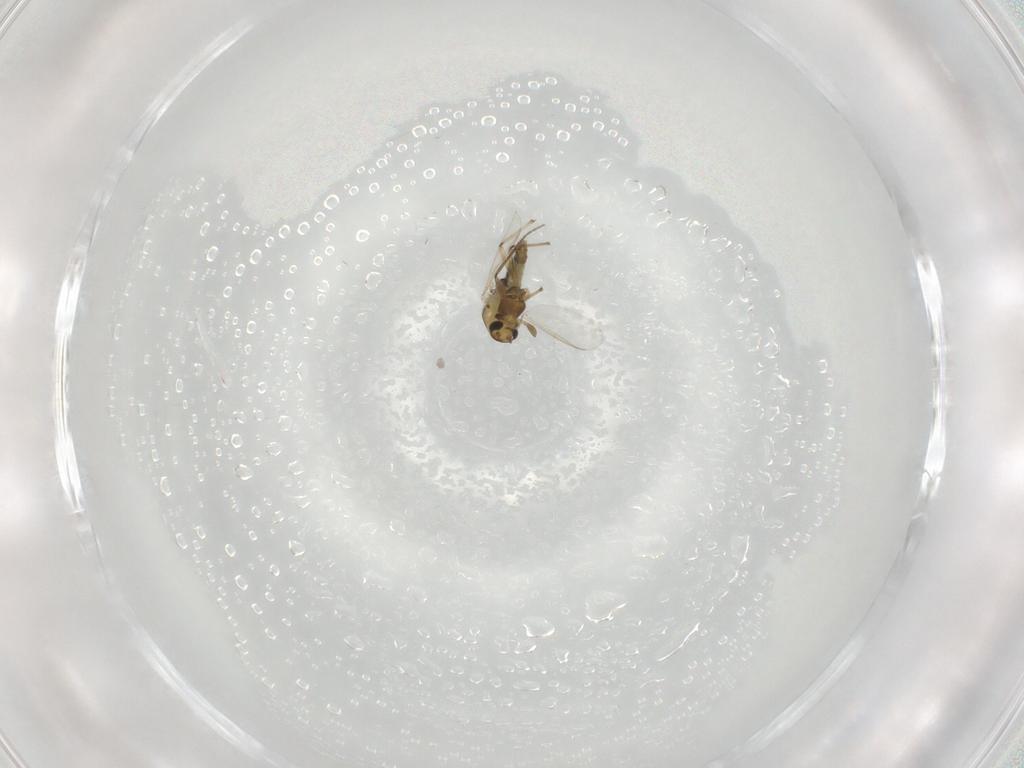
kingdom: Animalia
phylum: Arthropoda
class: Insecta
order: Diptera
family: Chironomidae
